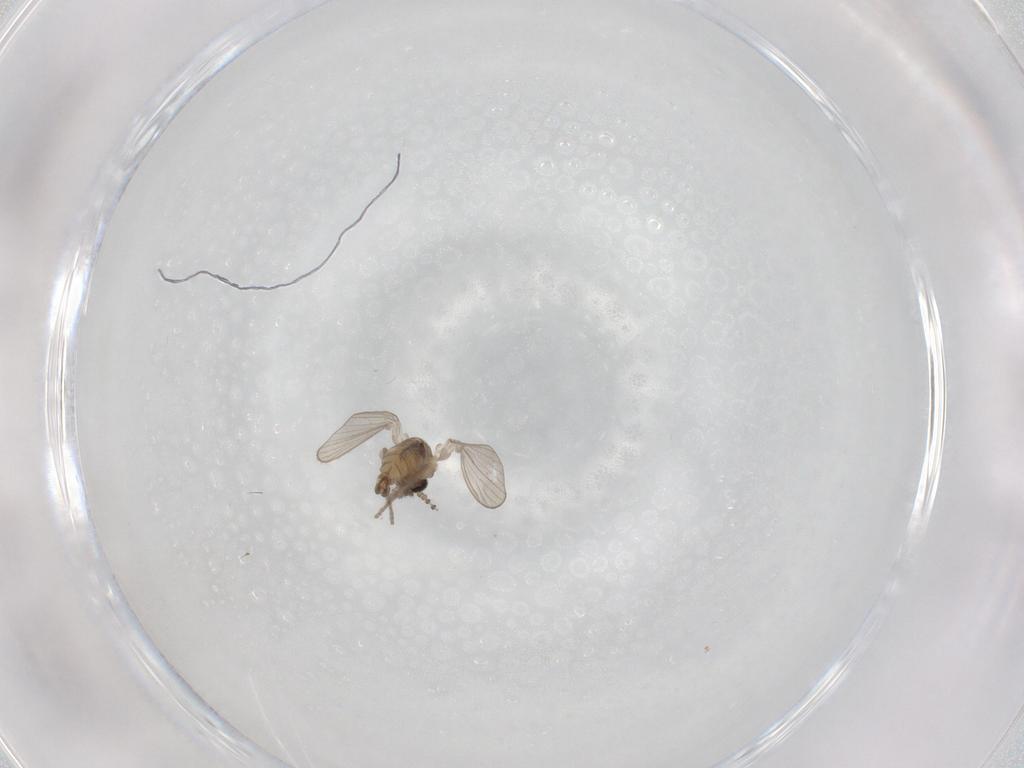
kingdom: Animalia
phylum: Arthropoda
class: Insecta
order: Diptera
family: Psychodidae
